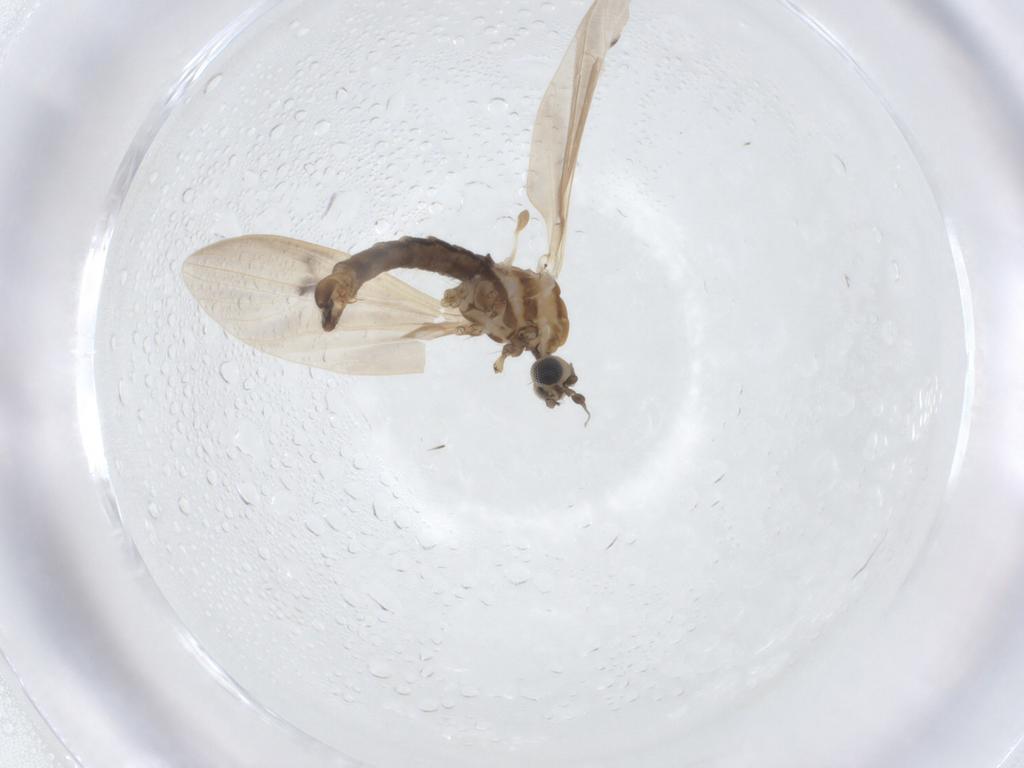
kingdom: Animalia
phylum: Arthropoda
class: Insecta
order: Diptera
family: Limoniidae
